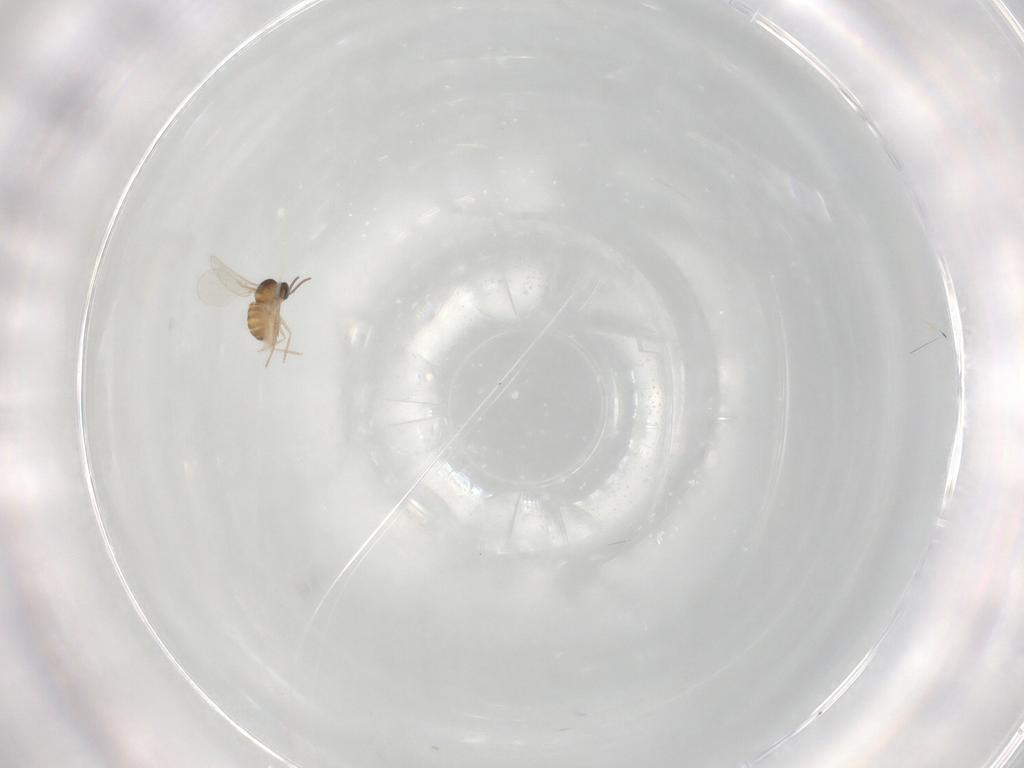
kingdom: Animalia
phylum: Arthropoda
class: Insecta
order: Diptera
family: Cecidomyiidae
